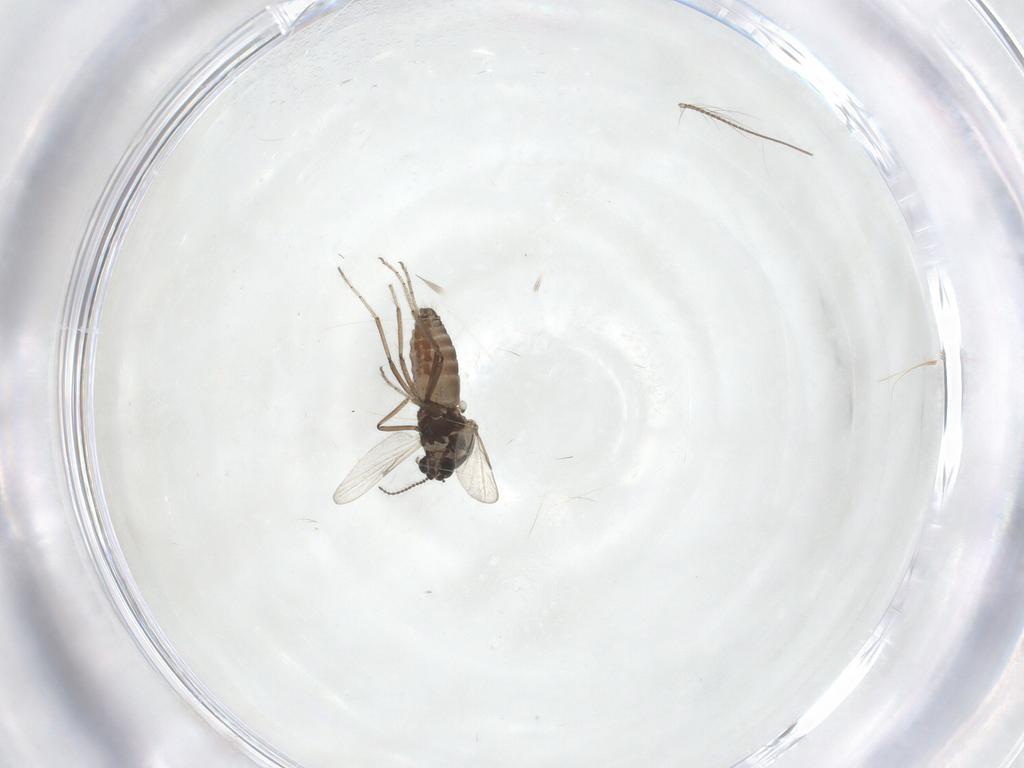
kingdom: Animalia
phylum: Arthropoda
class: Insecta
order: Diptera
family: Ceratopogonidae
